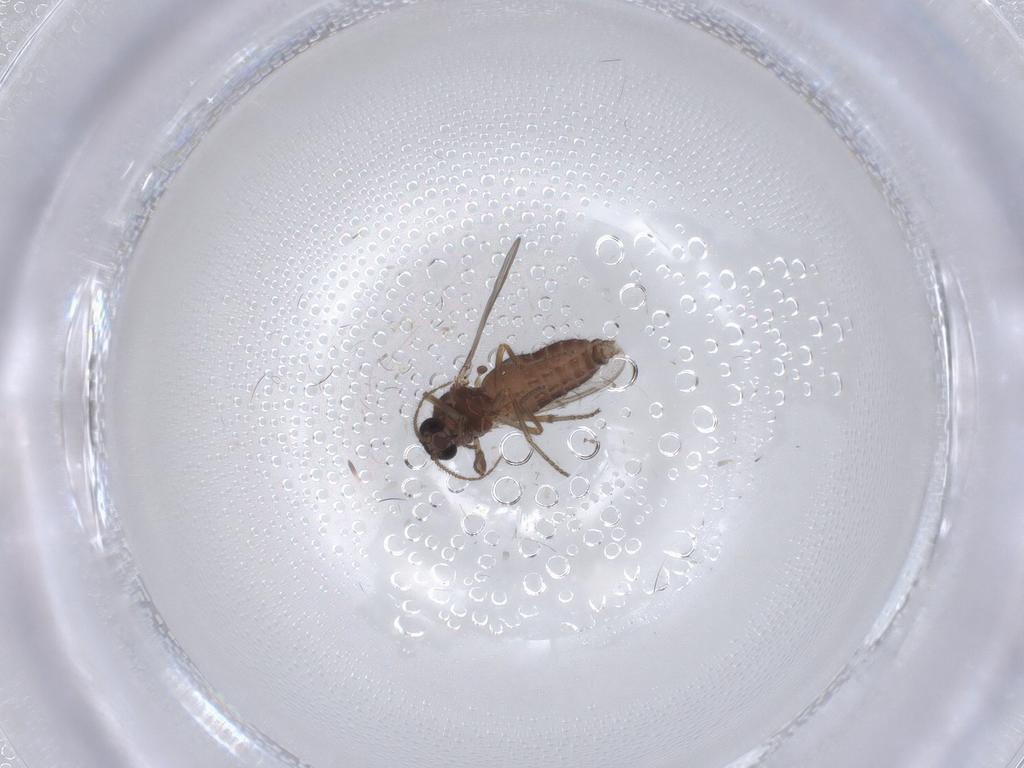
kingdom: Animalia
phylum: Arthropoda
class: Insecta
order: Diptera
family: Ceratopogonidae
